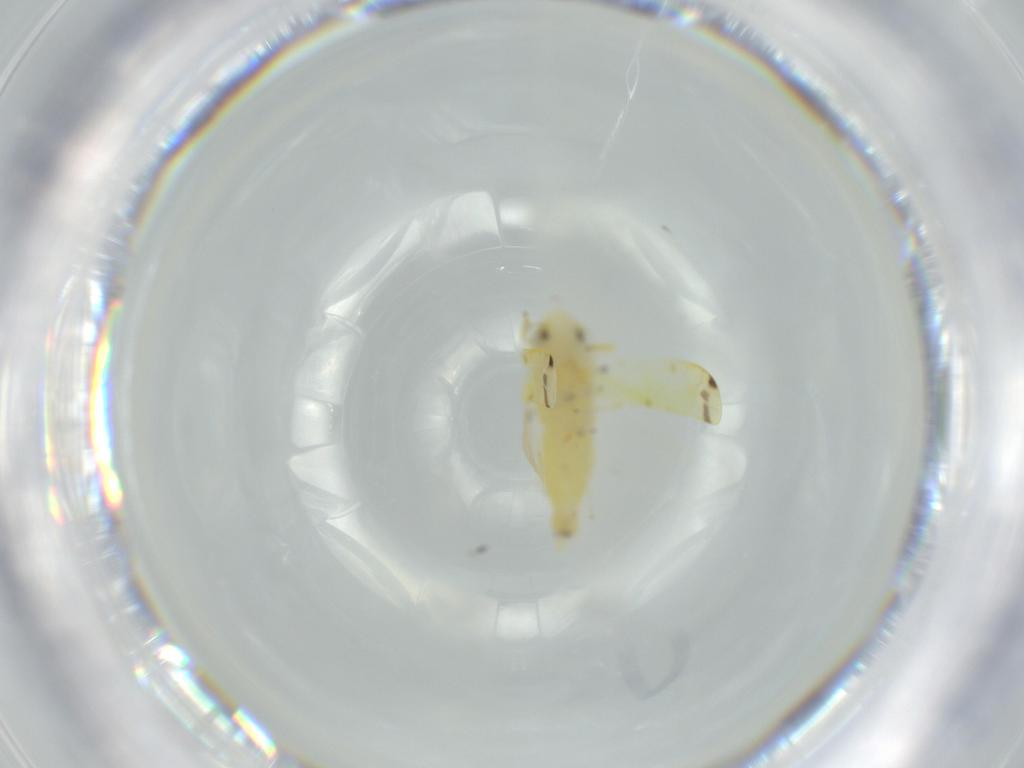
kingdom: Animalia
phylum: Arthropoda
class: Insecta
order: Hemiptera
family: Cicadellidae
